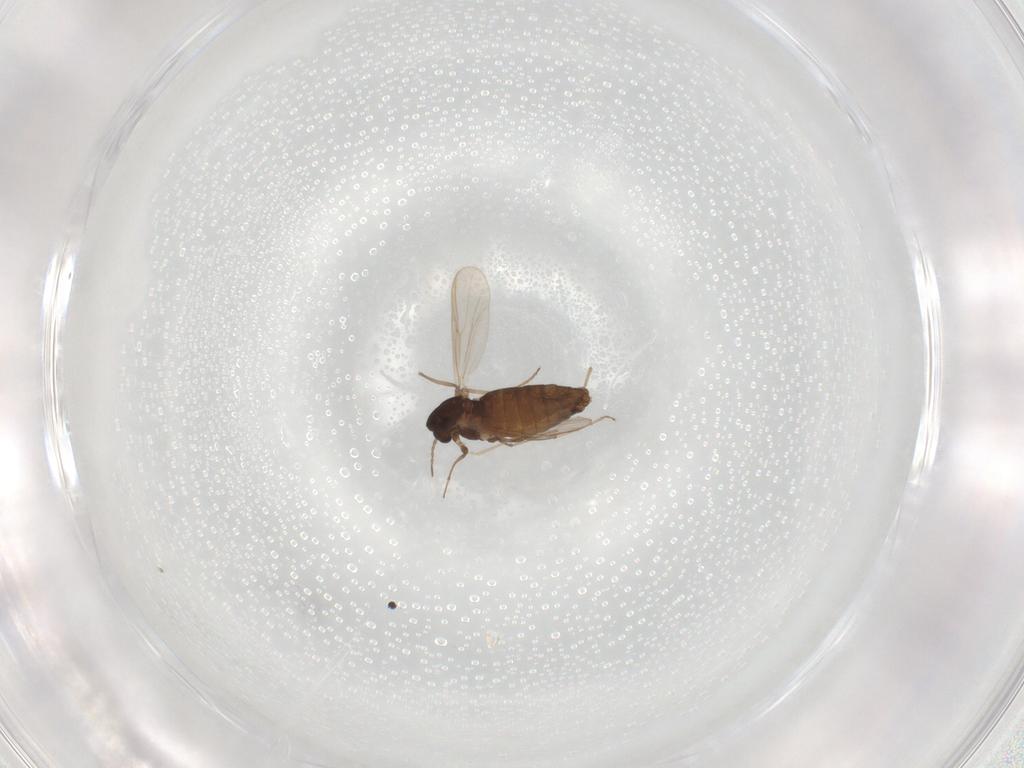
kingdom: Animalia
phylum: Arthropoda
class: Insecta
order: Diptera
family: Chironomidae
